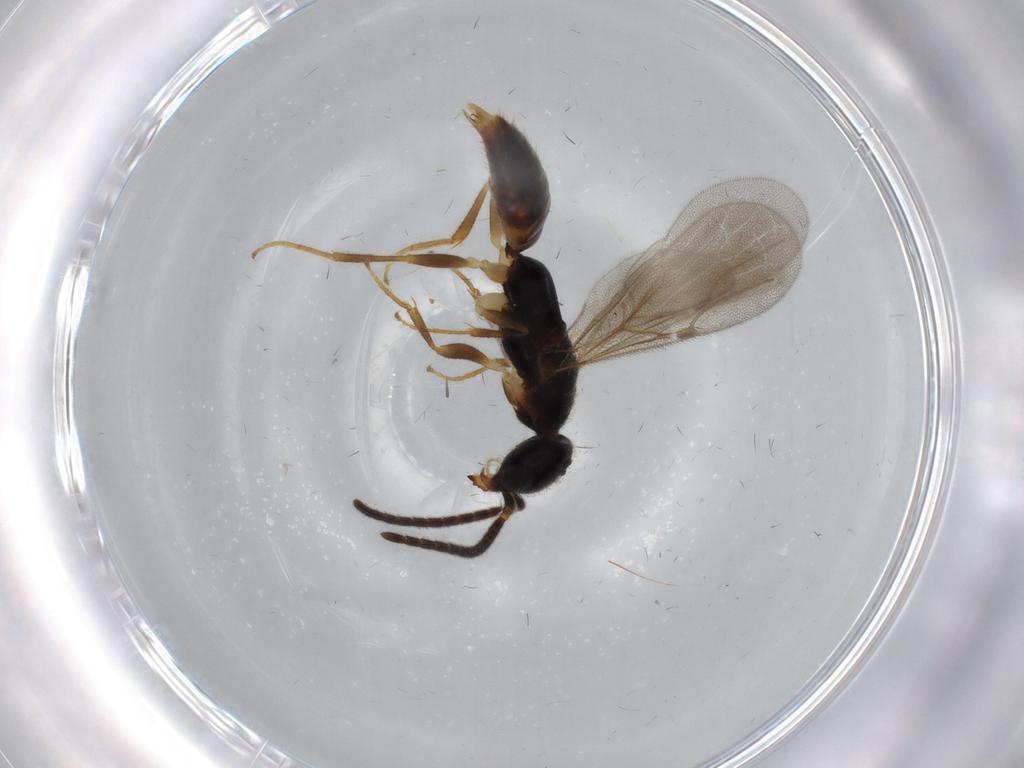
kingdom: Animalia
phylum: Arthropoda
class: Insecta
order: Hymenoptera
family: Bethylidae
